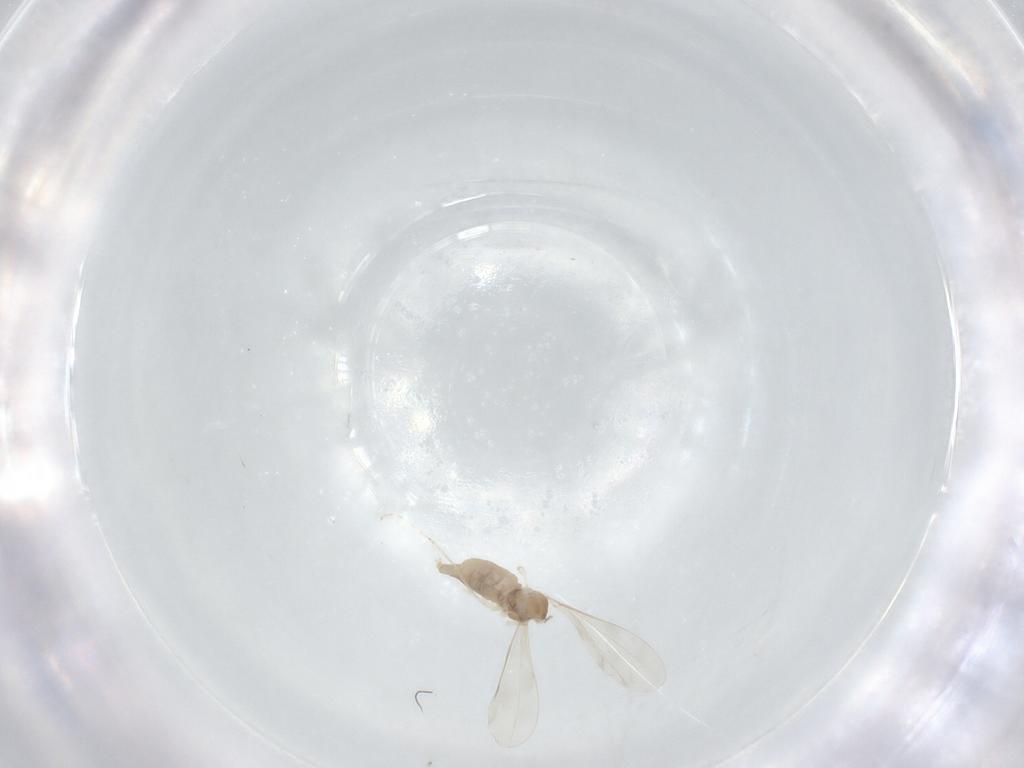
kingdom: Animalia
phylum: Arthropoda
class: Insecta
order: Diptera
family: Cecidomyiidae
